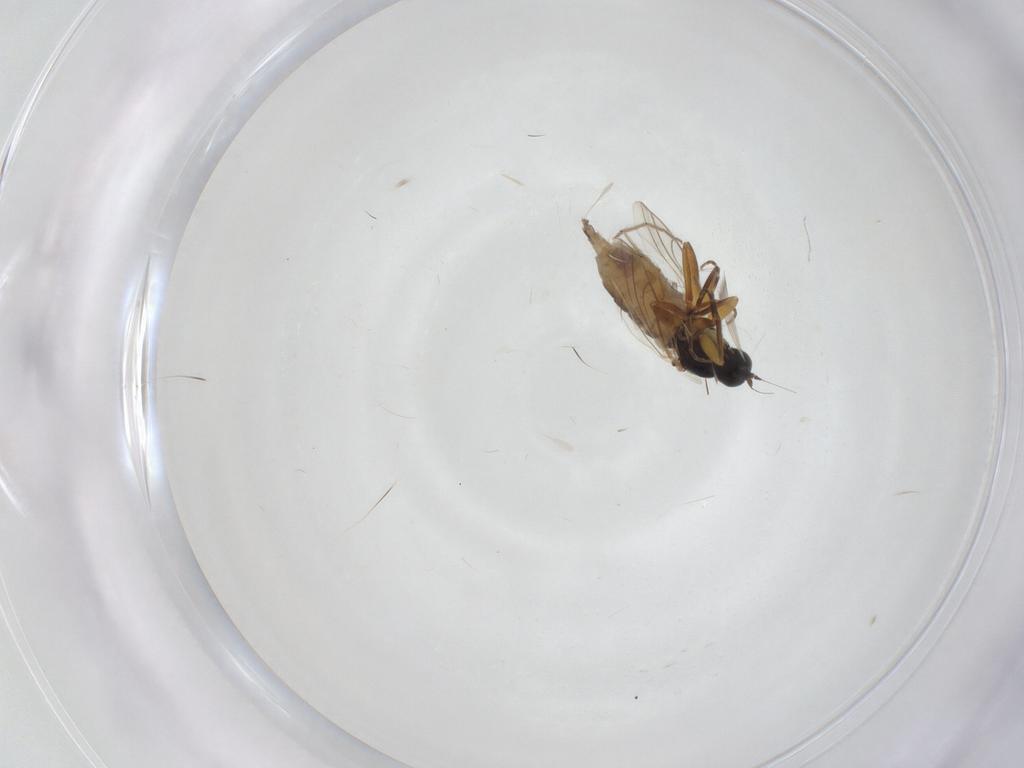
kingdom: Animalia
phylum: Arthropoda
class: Insecta
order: Diptera
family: Hybotidae
